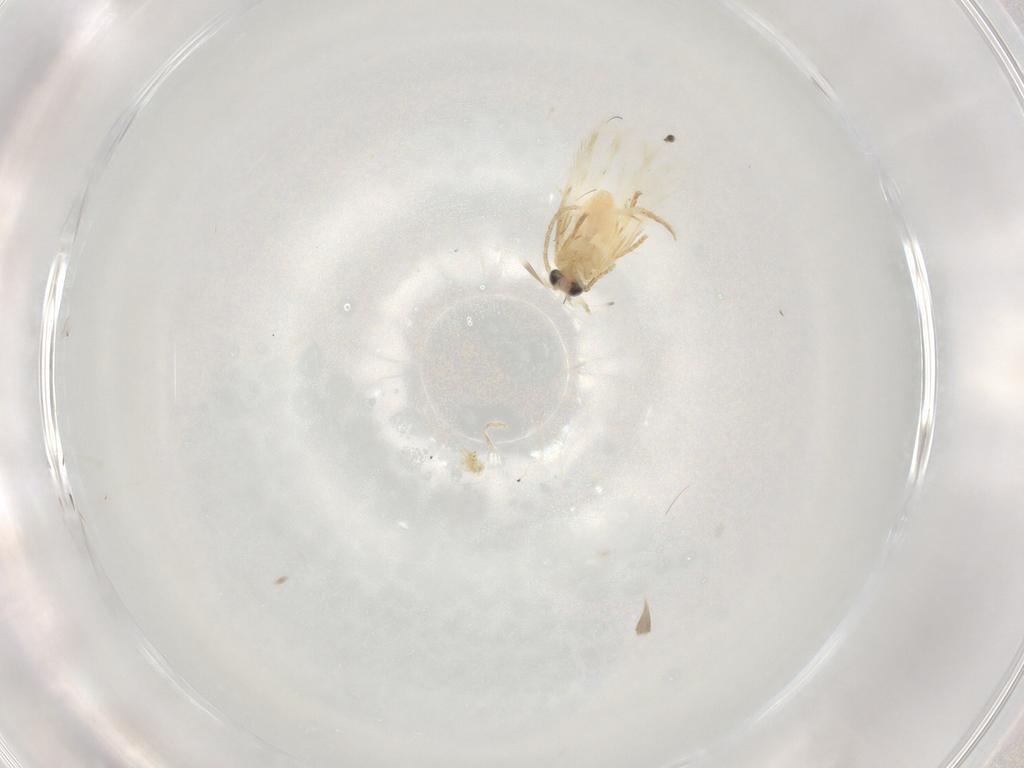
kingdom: Animalia
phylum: Arthropoda
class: Insecta
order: Lepidoptera
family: Nepticulidae
